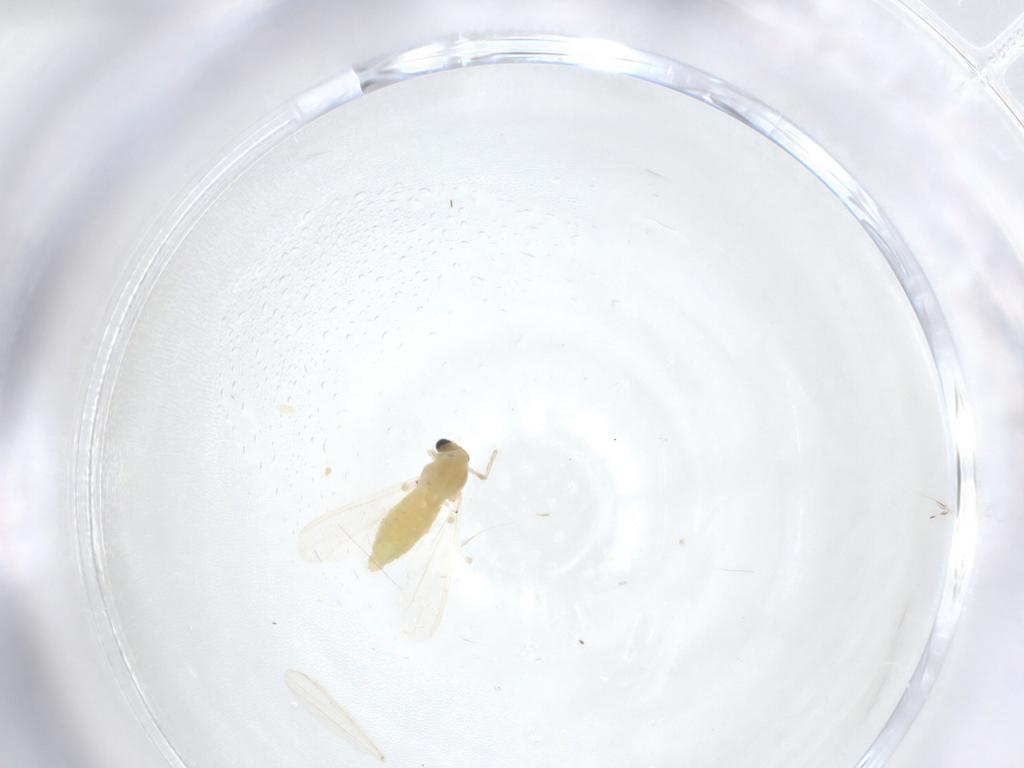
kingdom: Animalia
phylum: Arthropoda
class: Insecta
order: Diptera
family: Chironomidae
